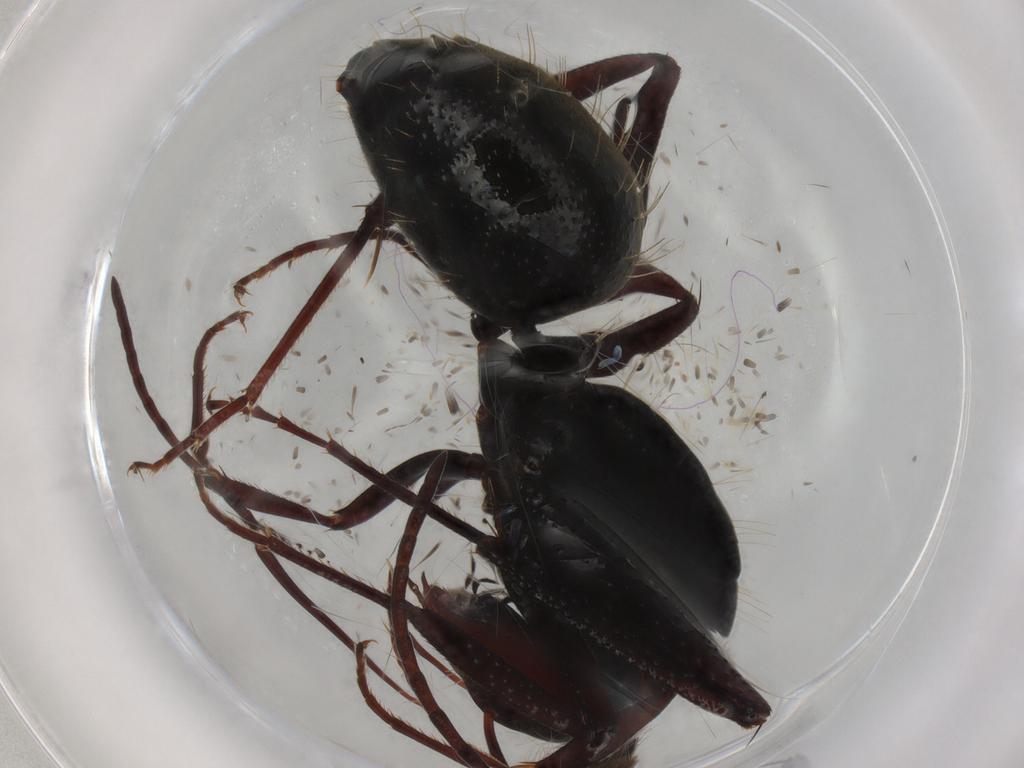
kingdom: Animalia
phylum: Arthropoda
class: Insecta
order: Hymenoptera
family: Formicidae
